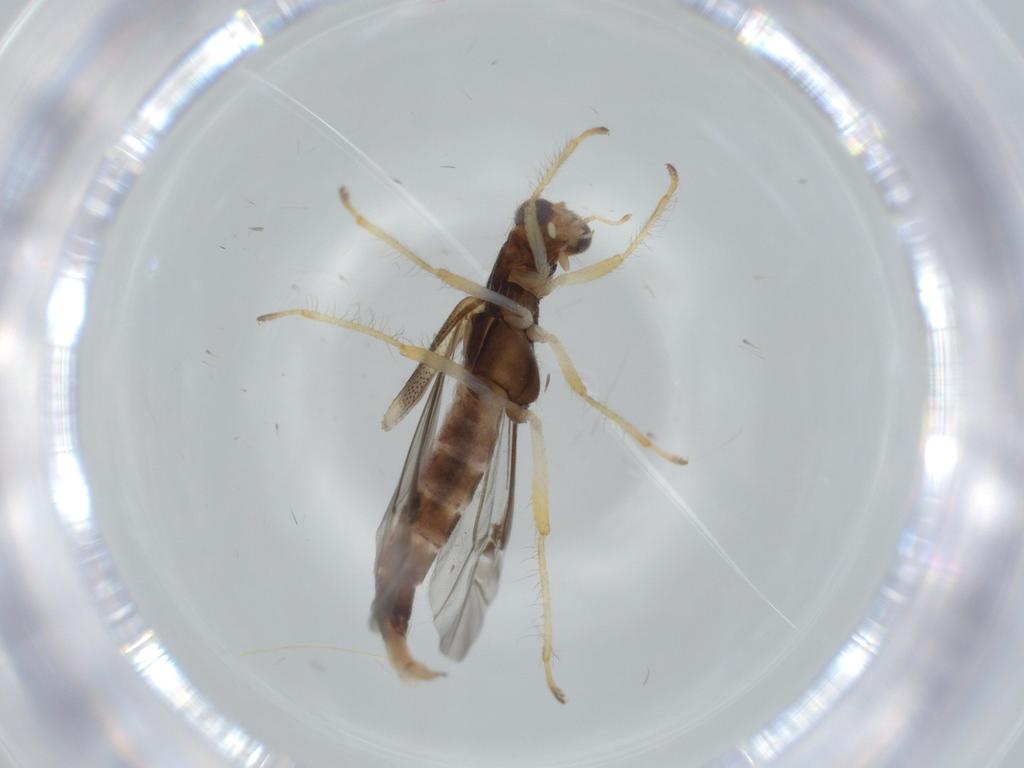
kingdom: Animalia
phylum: Arthropoda
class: Insecta
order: Coleoptera
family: Cleridae
